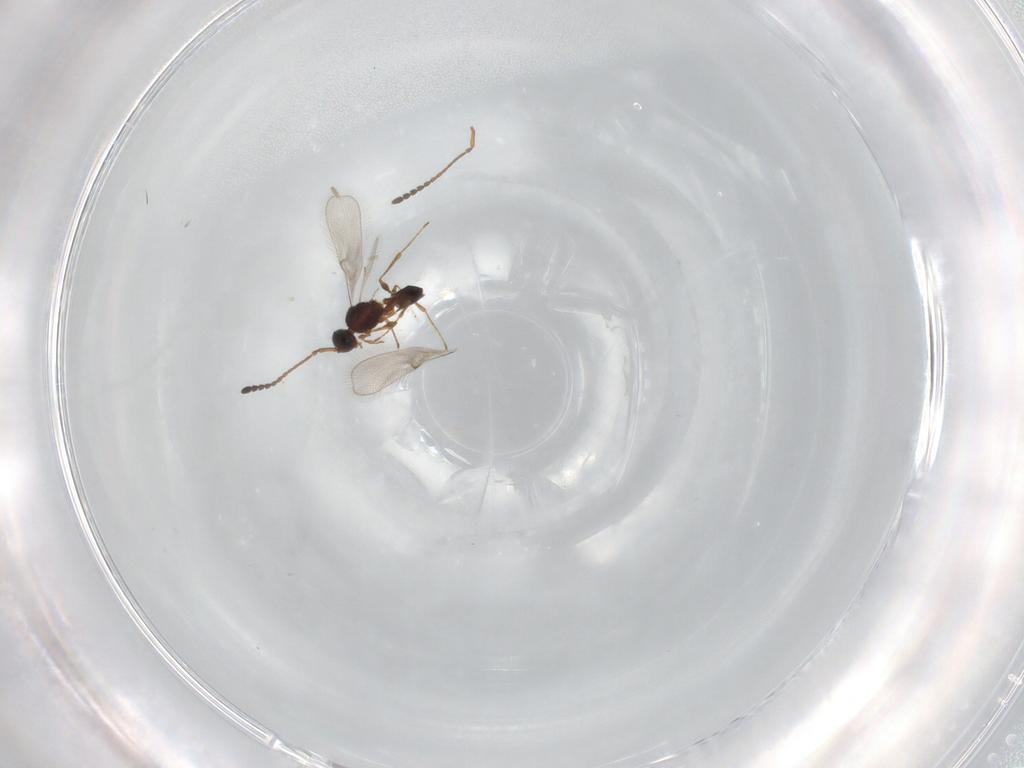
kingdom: Animalia
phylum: Arthropoda
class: Insecta
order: Hymenoptera
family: Diapriidae
